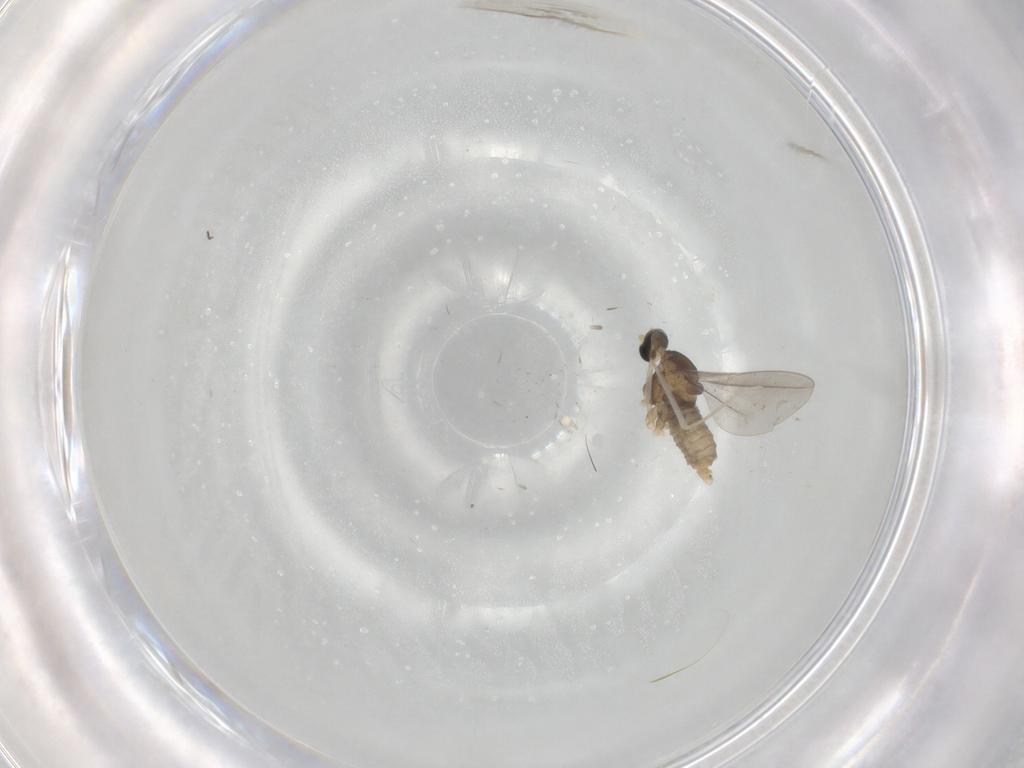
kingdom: Animalia
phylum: Arthropoda
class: Insecta
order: Diptera
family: Cecidomyiidae
